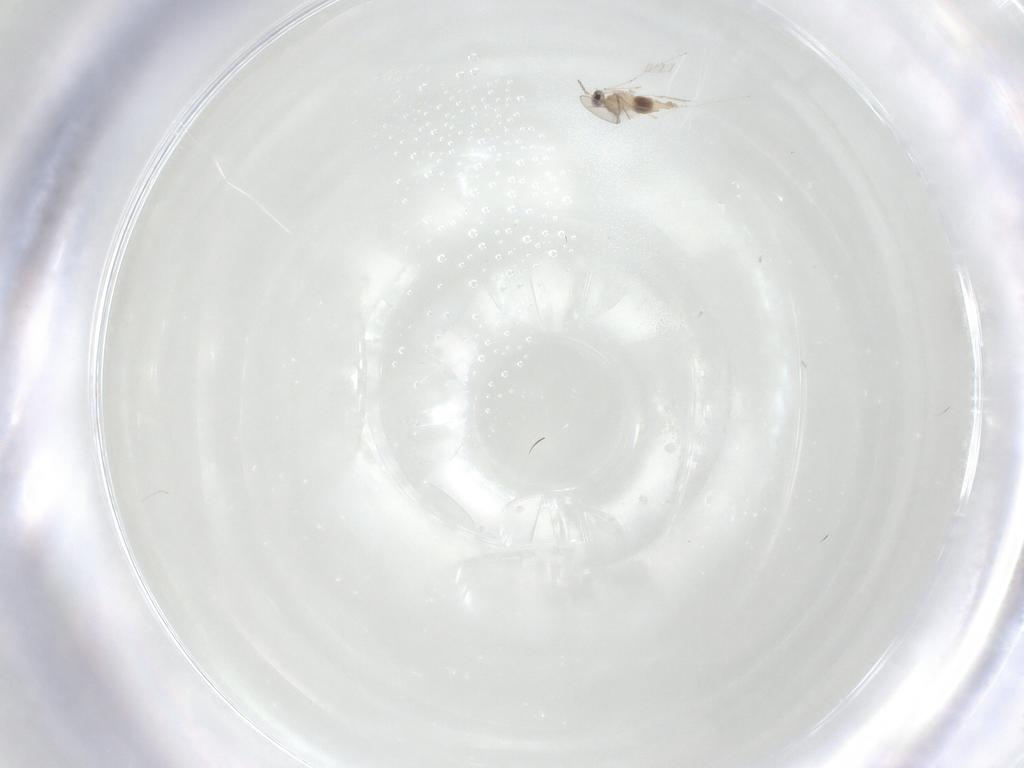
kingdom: Animalia
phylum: Arthropoda
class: Insecta
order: Diptera
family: Cecidomyiidae
